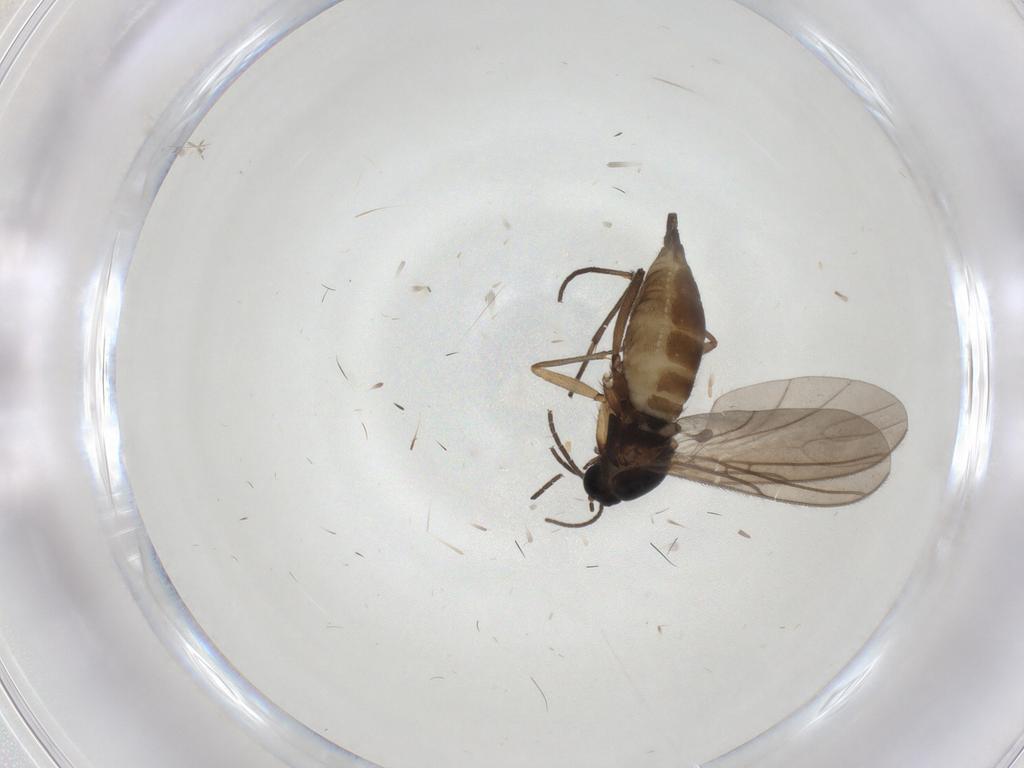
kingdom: Animalia
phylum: Arthropoda
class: Insecta
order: Diptera
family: Sciaridae
